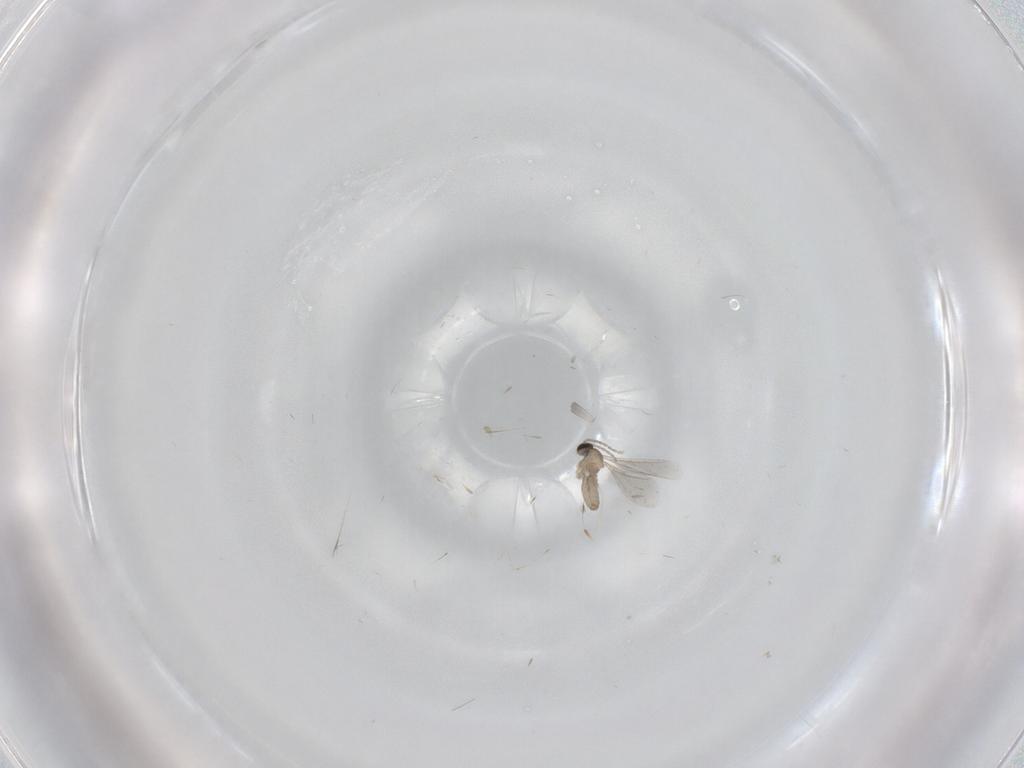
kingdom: Animalia
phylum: Arthropoda
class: Insecta
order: Diptera
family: Cecidomyiidae
